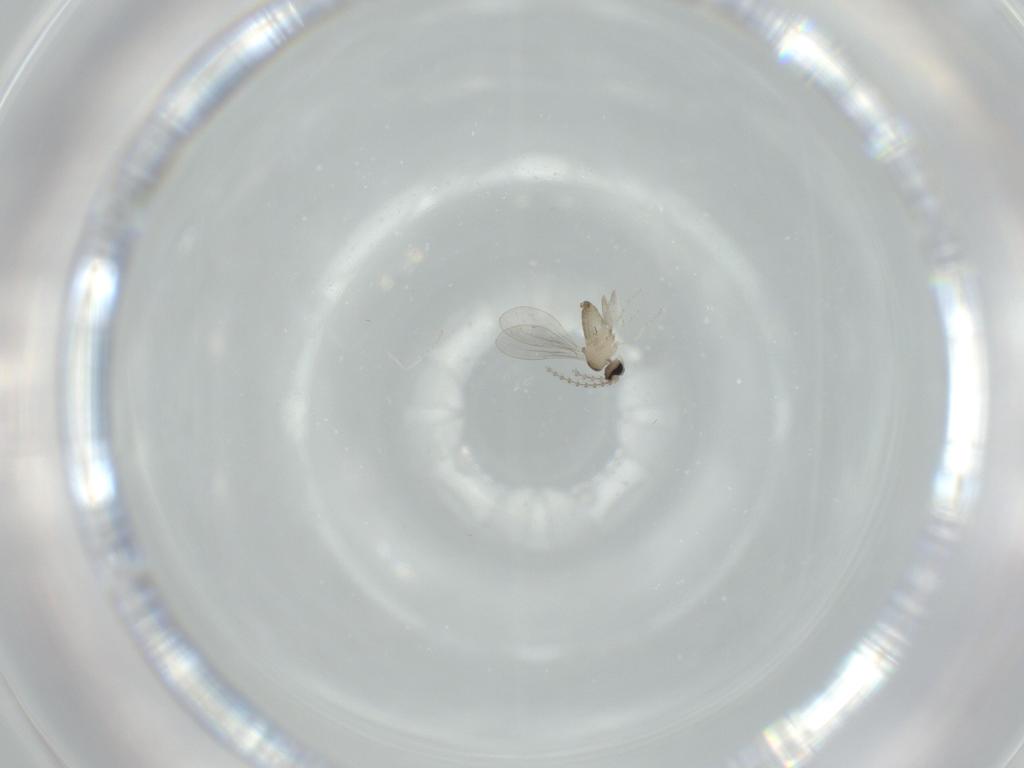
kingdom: Animalia
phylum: Arthropoda
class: Insecta
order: Diptera
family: Cecidomyiidae
